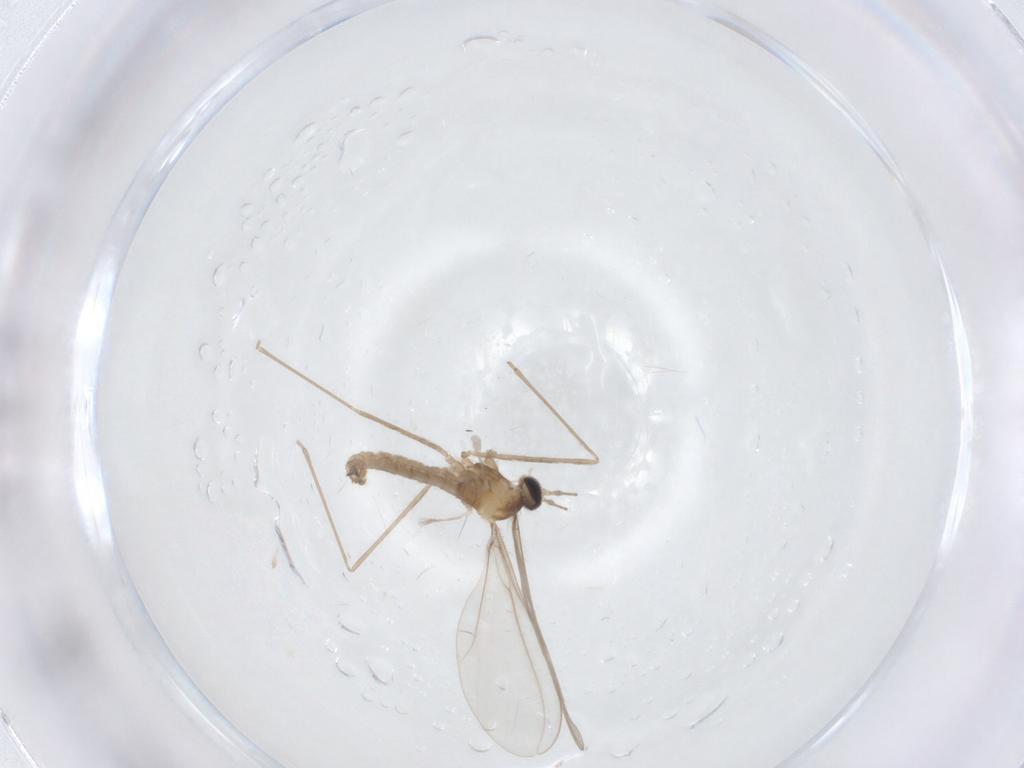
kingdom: Animalia
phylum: Arthropoda
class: Insecta
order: Diptera
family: Cecidomyiidae
